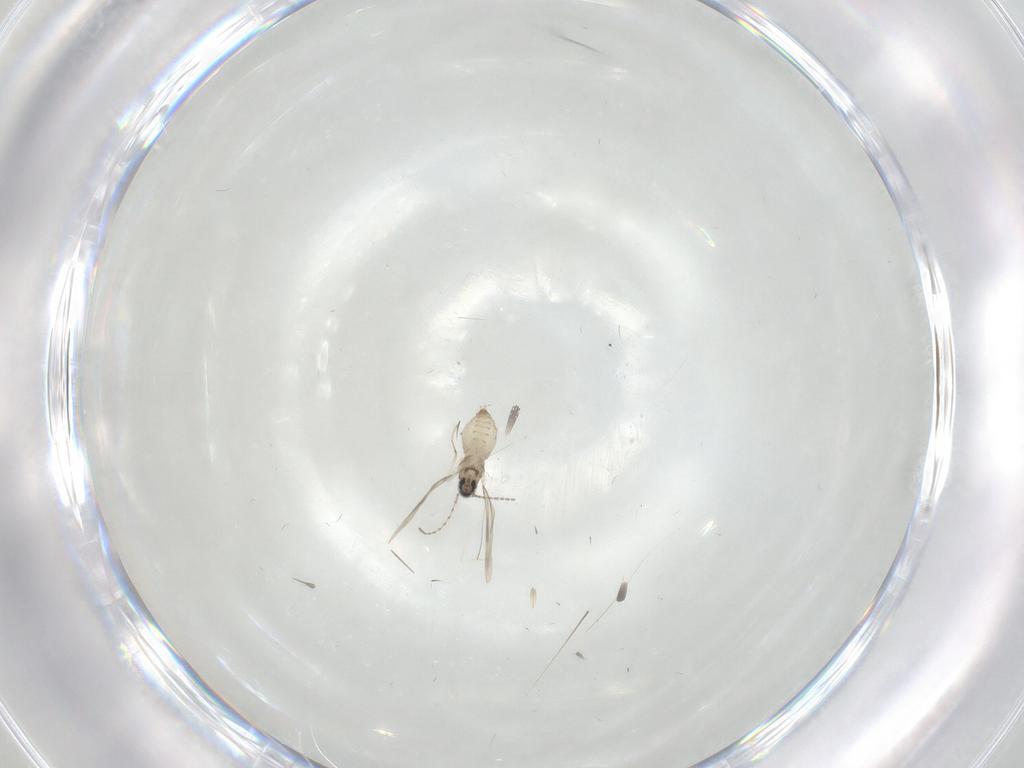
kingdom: Animalia
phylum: Arthropoda
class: Insecta
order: Diptera
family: Cecidomyiidae
